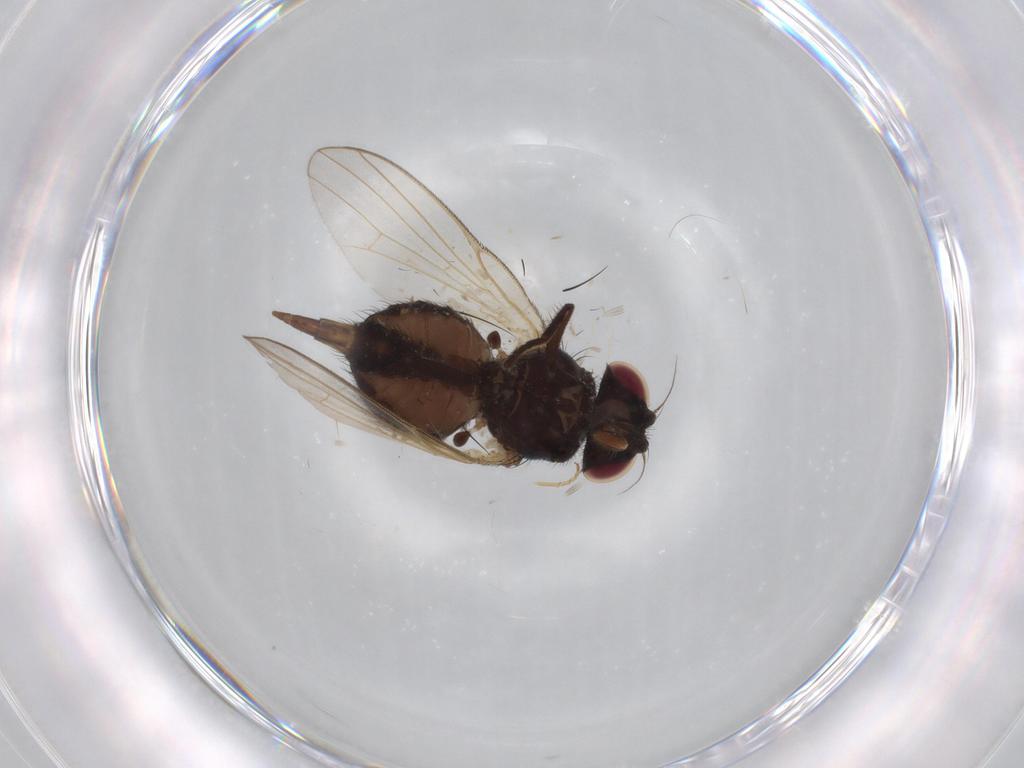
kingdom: Animalia
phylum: Arthropoda
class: Insecta
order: Diptera
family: Lonchaeidae
